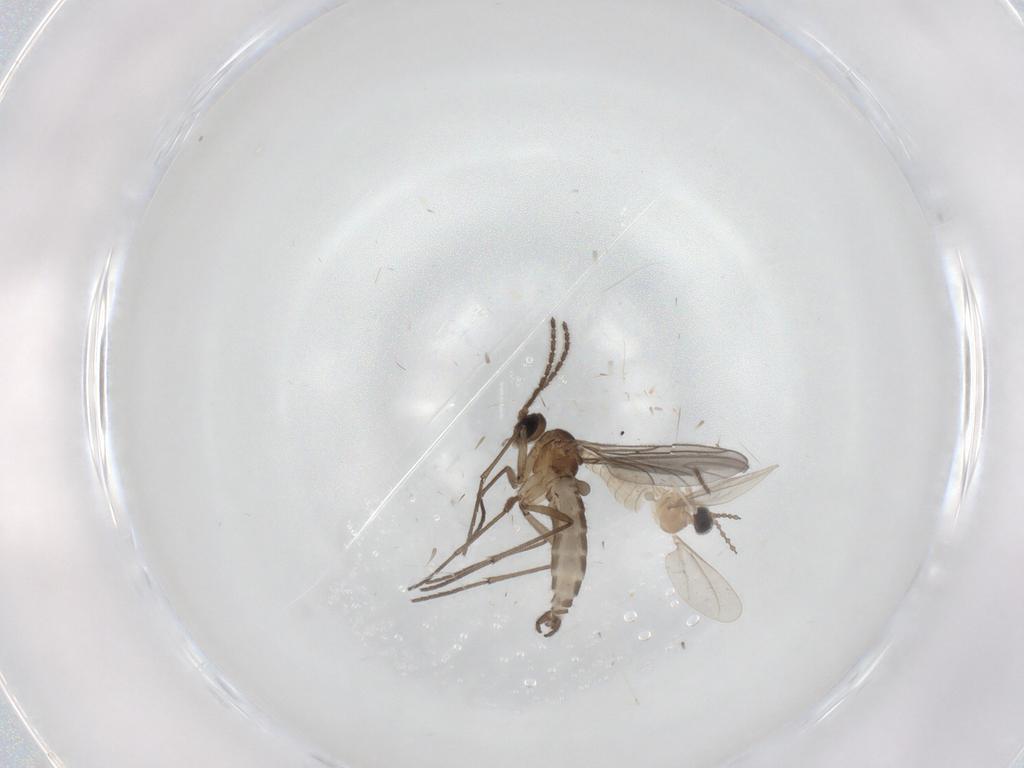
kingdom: Animalia
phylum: Arthropoda
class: Insecta
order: Diptera
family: Cecidomyiidae
